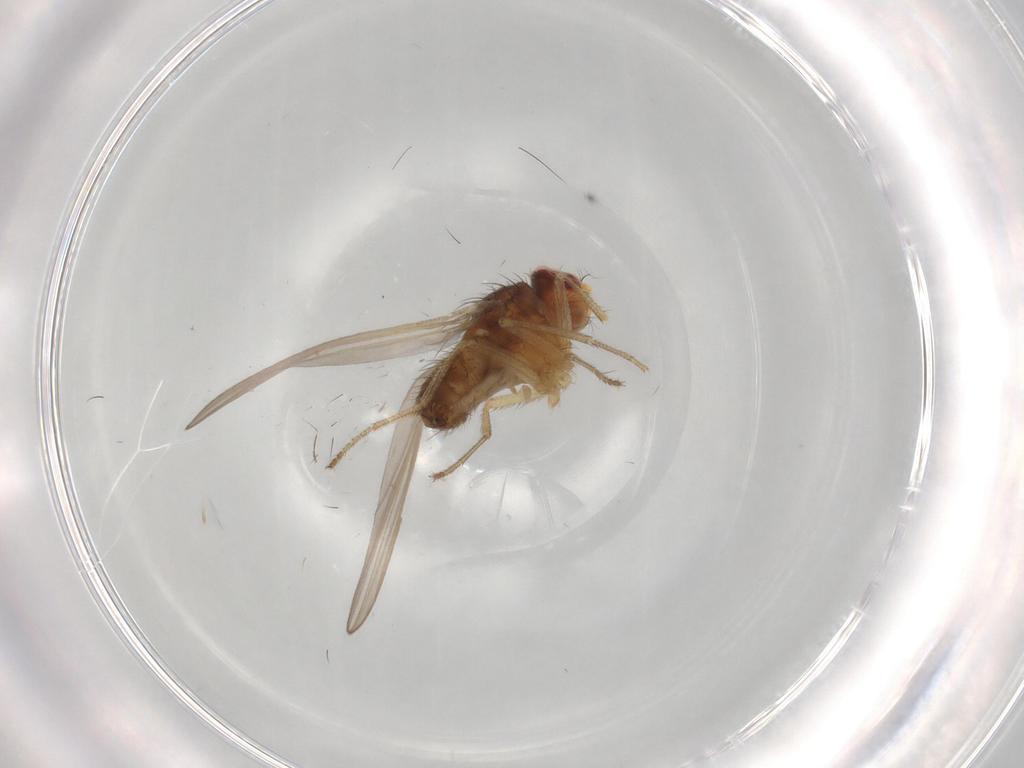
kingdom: Animalia
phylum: Arthropoda
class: Insecta
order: Diptera
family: Drosophilidae
